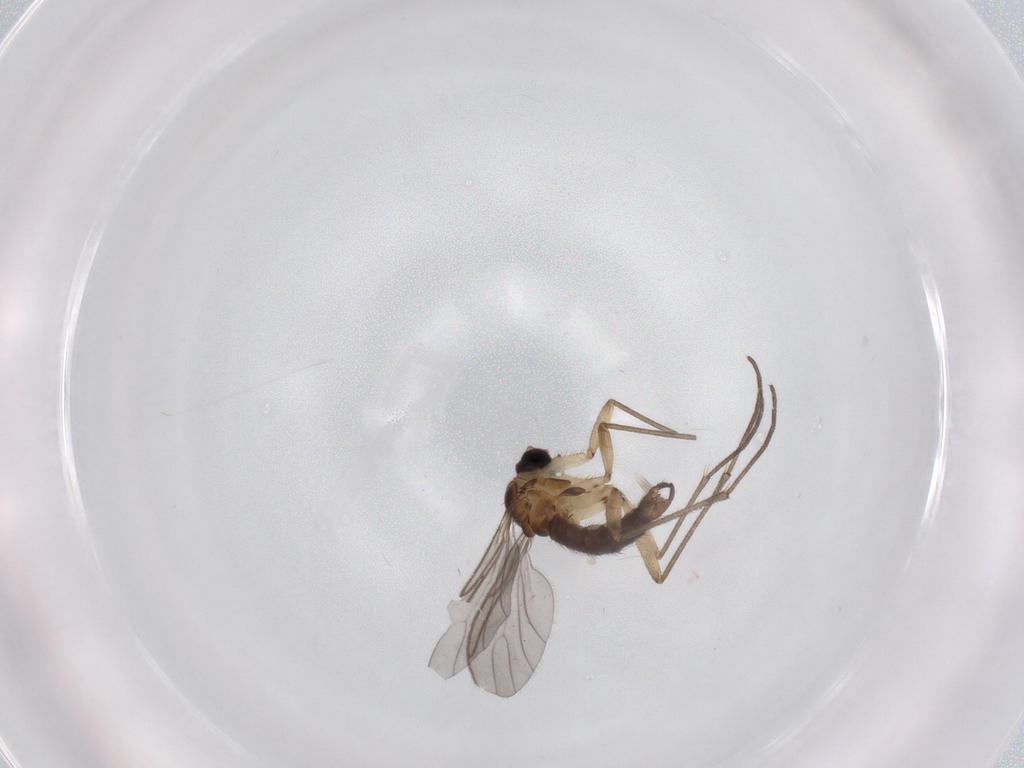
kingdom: Animalia
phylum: Arthropoda
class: Insecta
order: Diptera
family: Sciaridae
